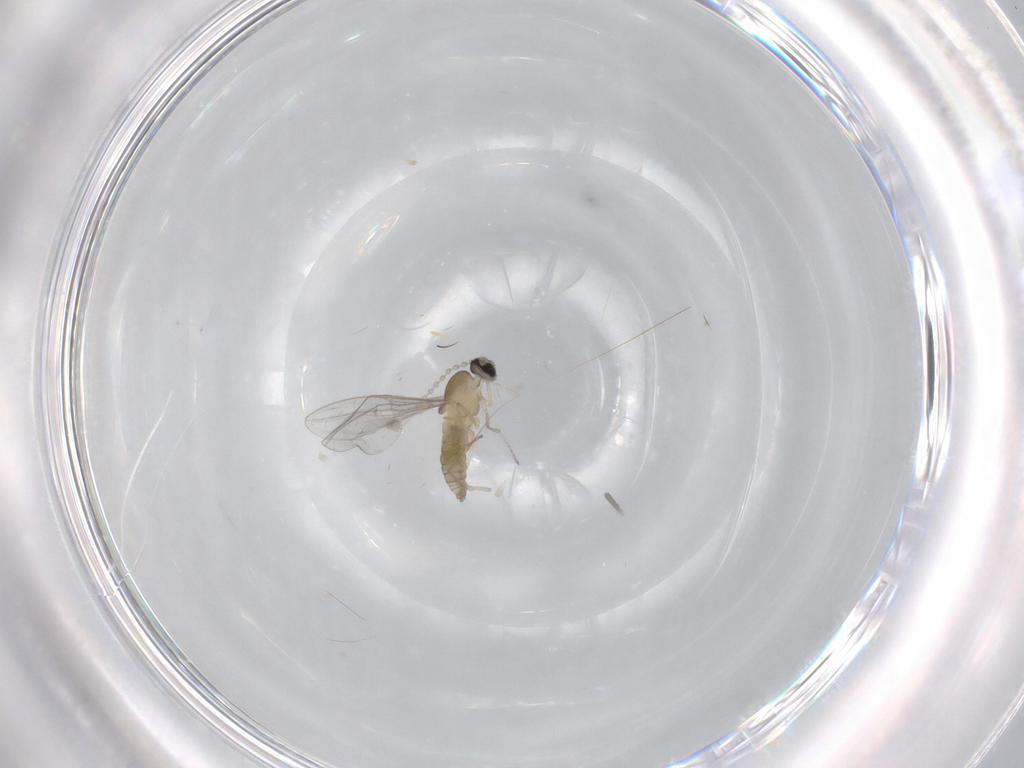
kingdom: Animalia
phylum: Arthropoda
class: Insecta
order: Diptera
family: Cecidomyiidae
